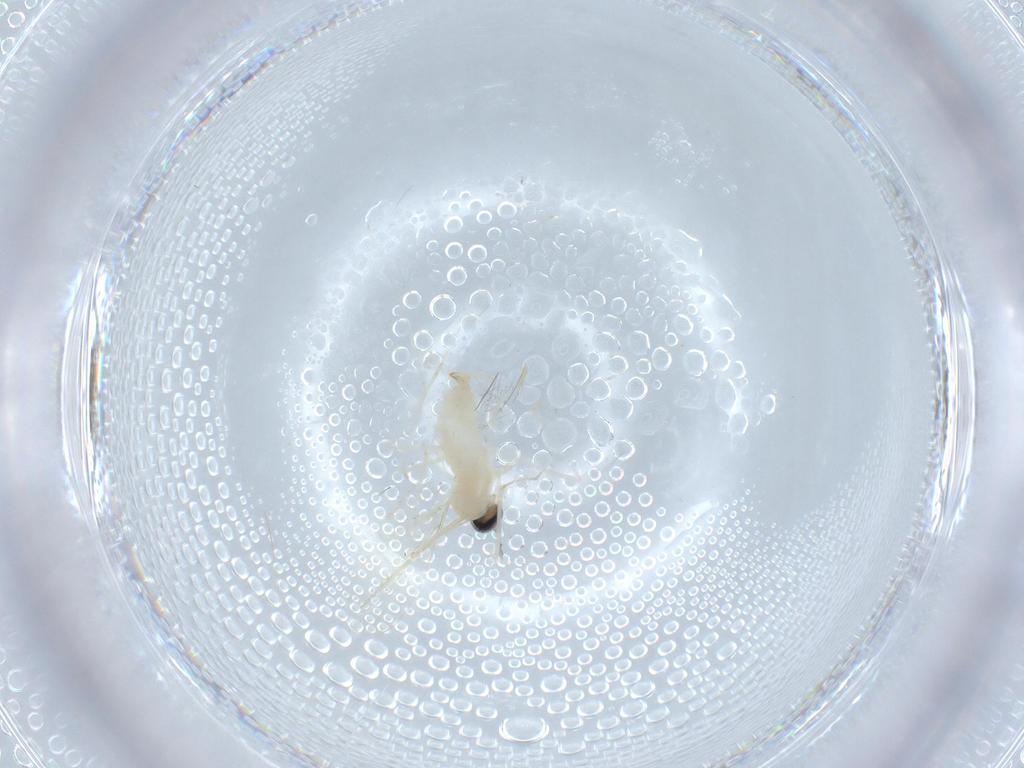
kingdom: Animalia
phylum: Arthropoda
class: Insecta
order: Diptera
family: Cecidomyiidae
